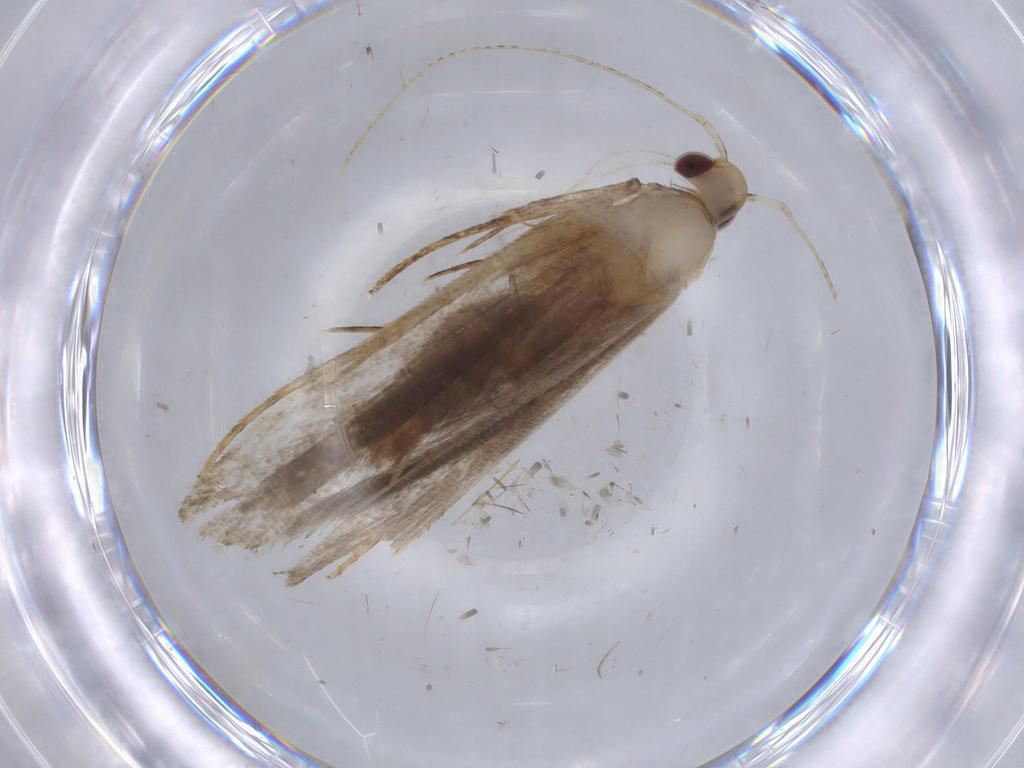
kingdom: Animalia
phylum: Arthropoda
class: Insecta
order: Lepidoptera
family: Gelechiidae
